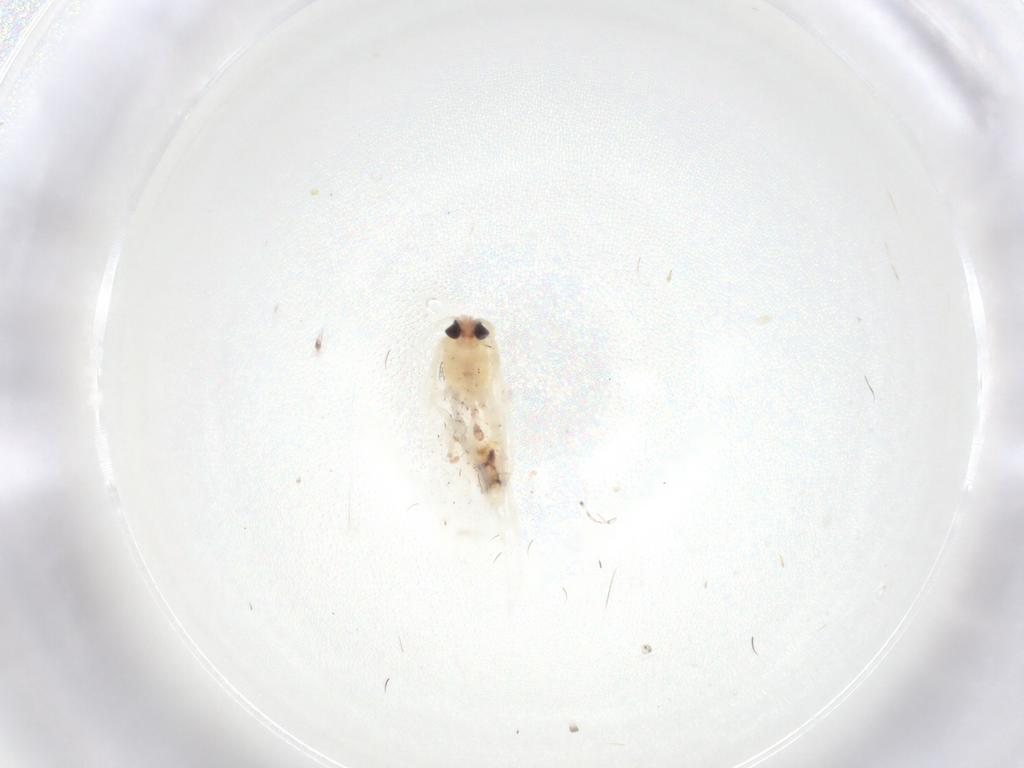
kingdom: Animalia
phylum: Arthropoda
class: Insecta
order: Lepidoptera
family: Gelechiidae
